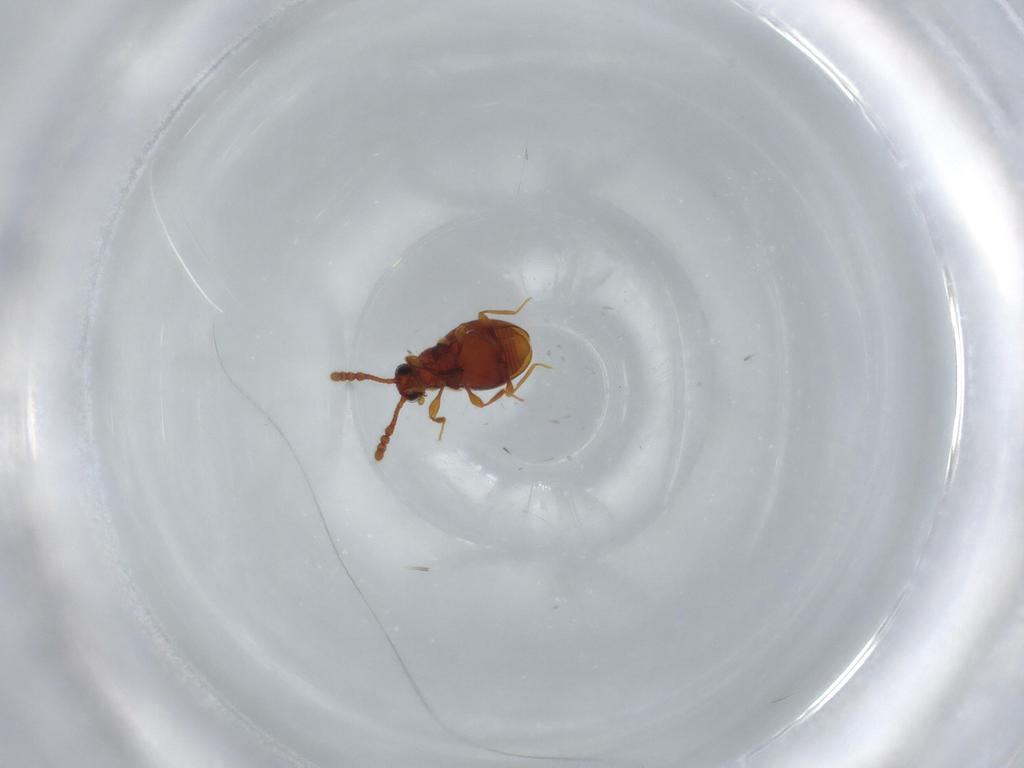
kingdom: Animalia
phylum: Arthropoda
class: Insecta
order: Coleoptera
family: Staphylinidae
